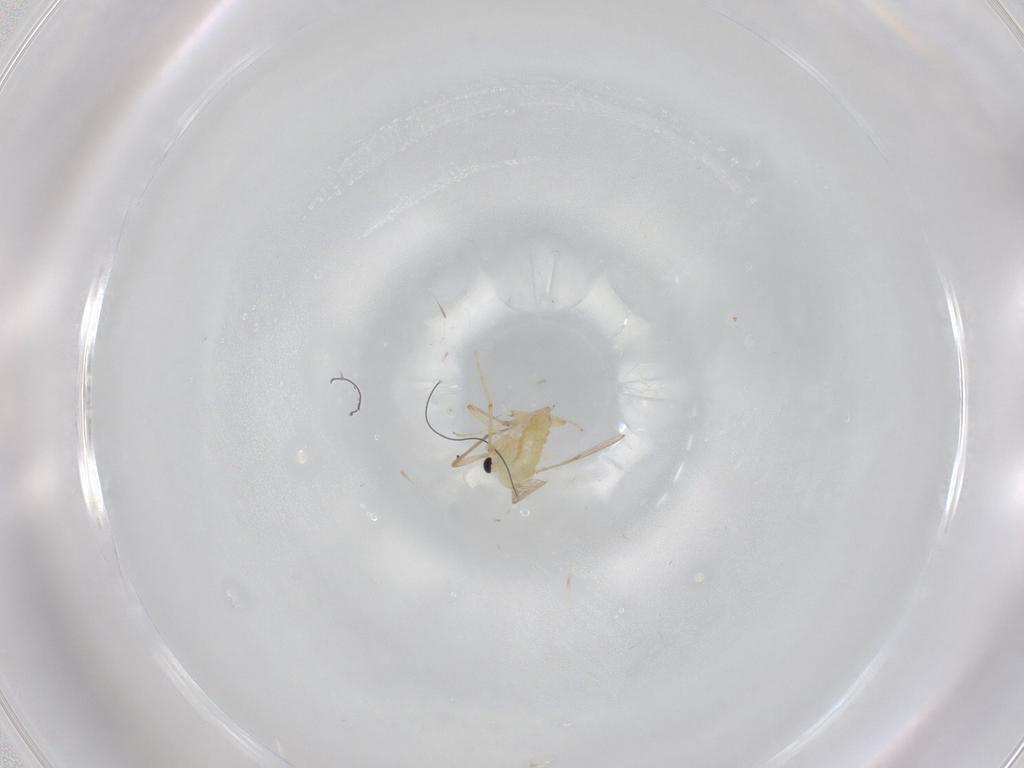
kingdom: Animalia
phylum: Arthropoda
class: Insecta
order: Diptera
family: Chironomidae
